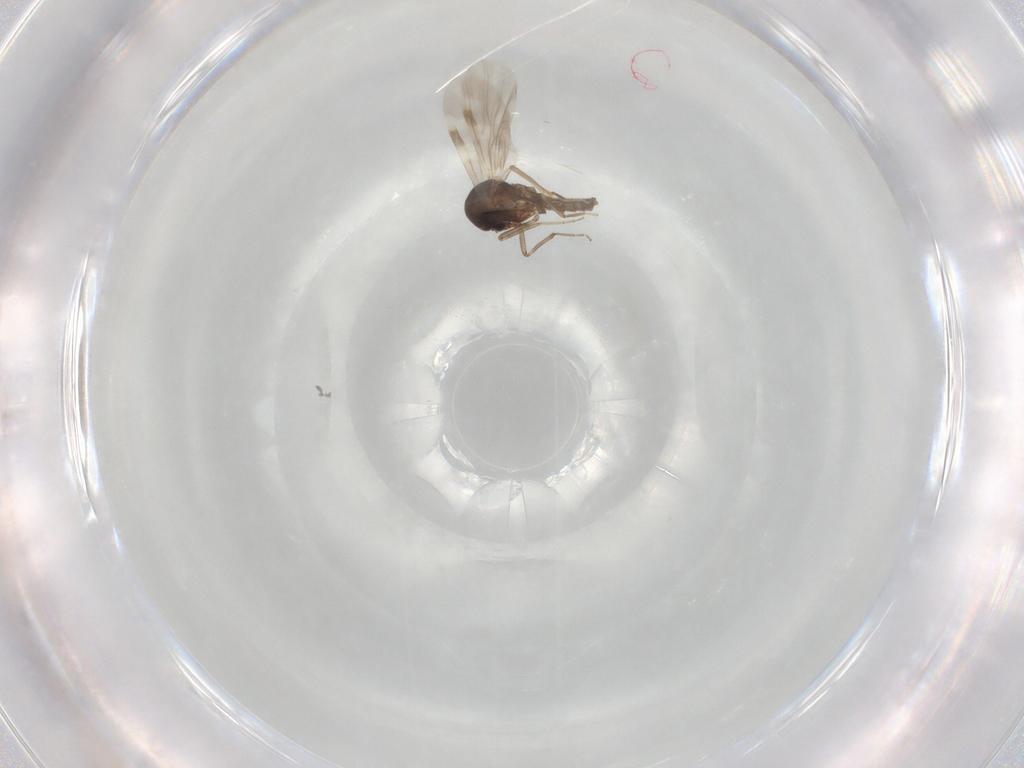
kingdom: Animalia
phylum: Arthropoda
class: Insecta
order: Diptera
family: Ceratopogonidae
